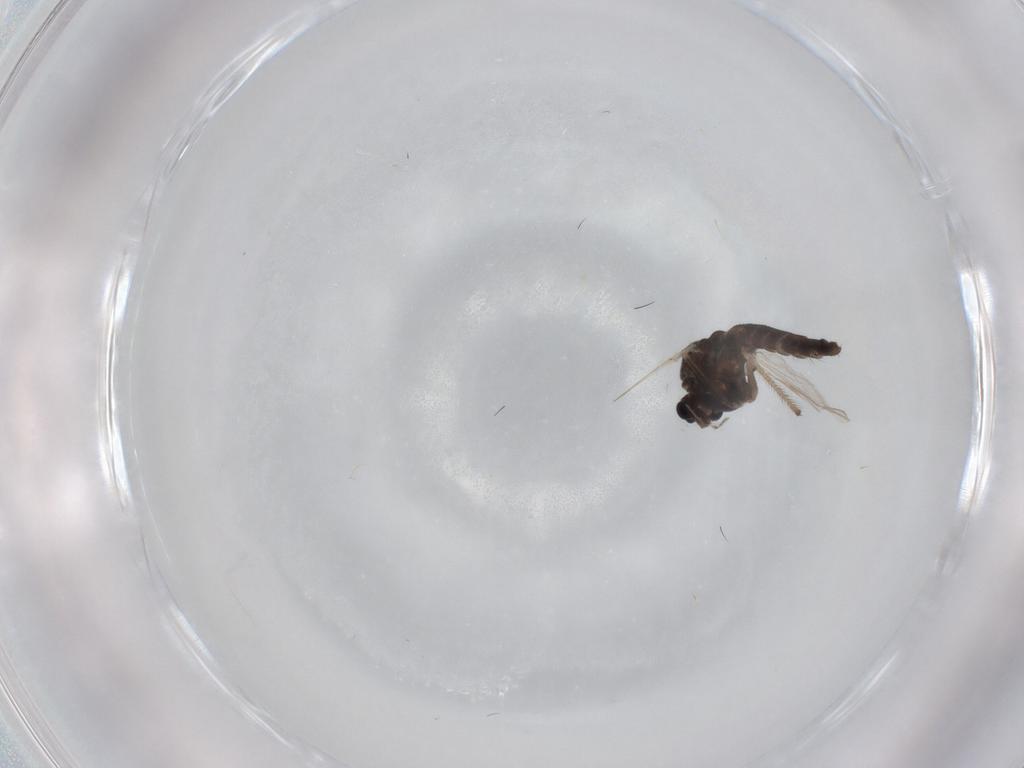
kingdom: Animalia
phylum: Arthropoda
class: Insecta
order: Diptera
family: Chironomidae
